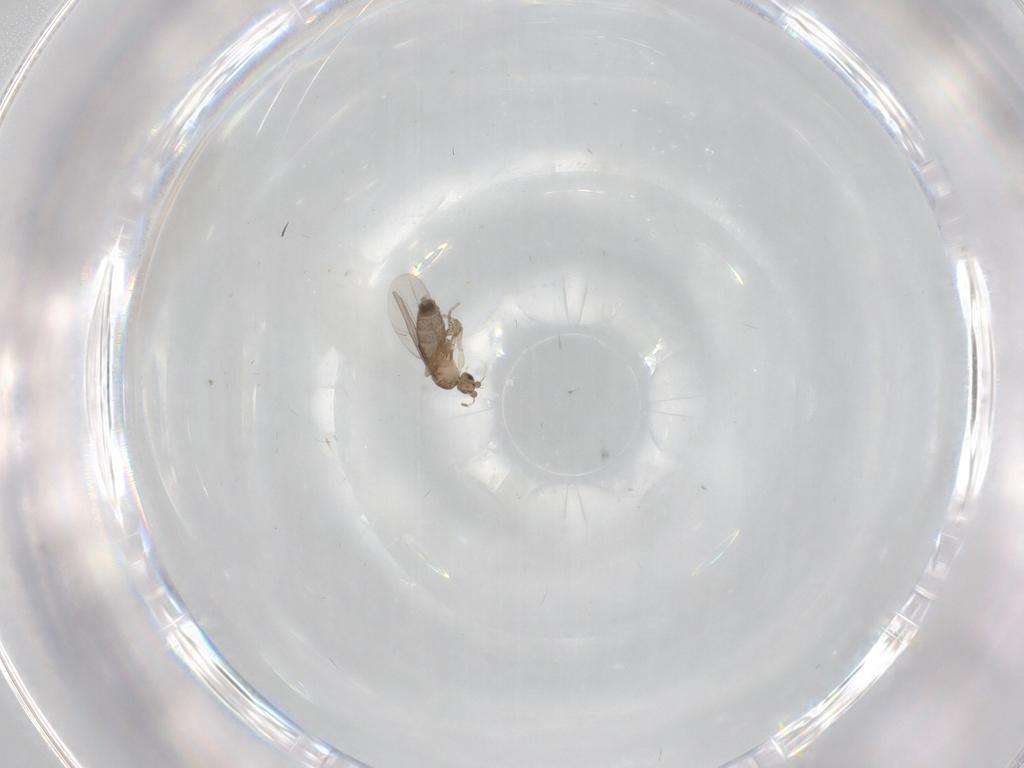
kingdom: Animalia
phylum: Arthropoda
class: Insecta
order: Diptera
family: Phoridae
